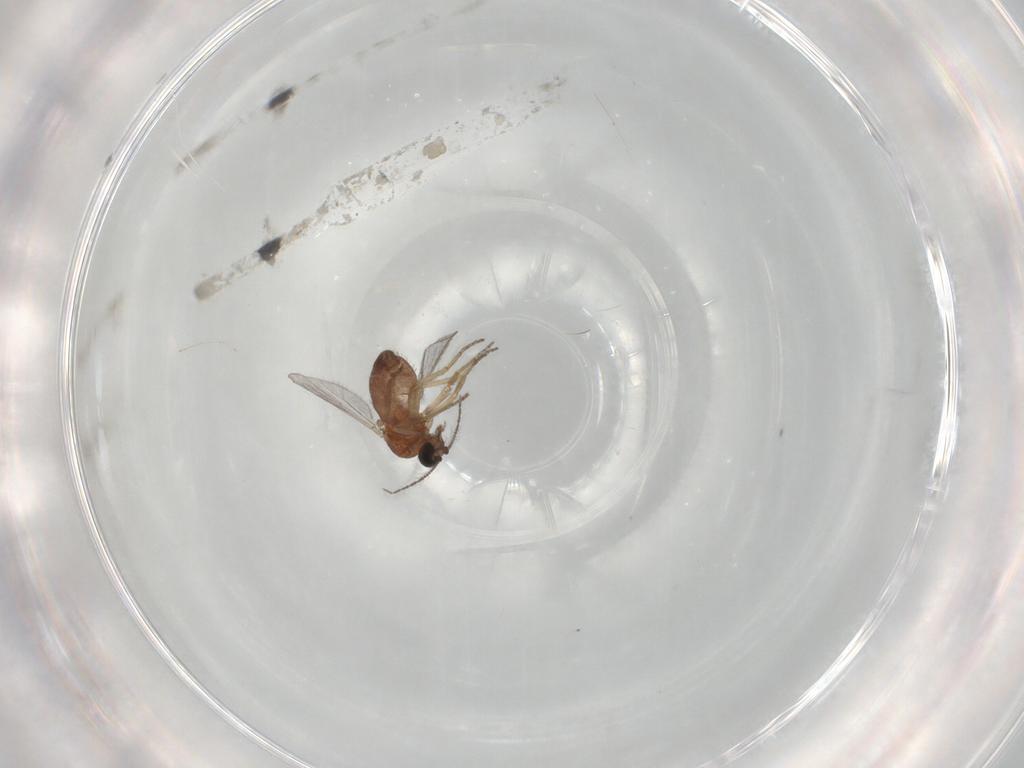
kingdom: Animalia
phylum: Arthropoda
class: Insecta
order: Diptera
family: Ceratopogonidae
